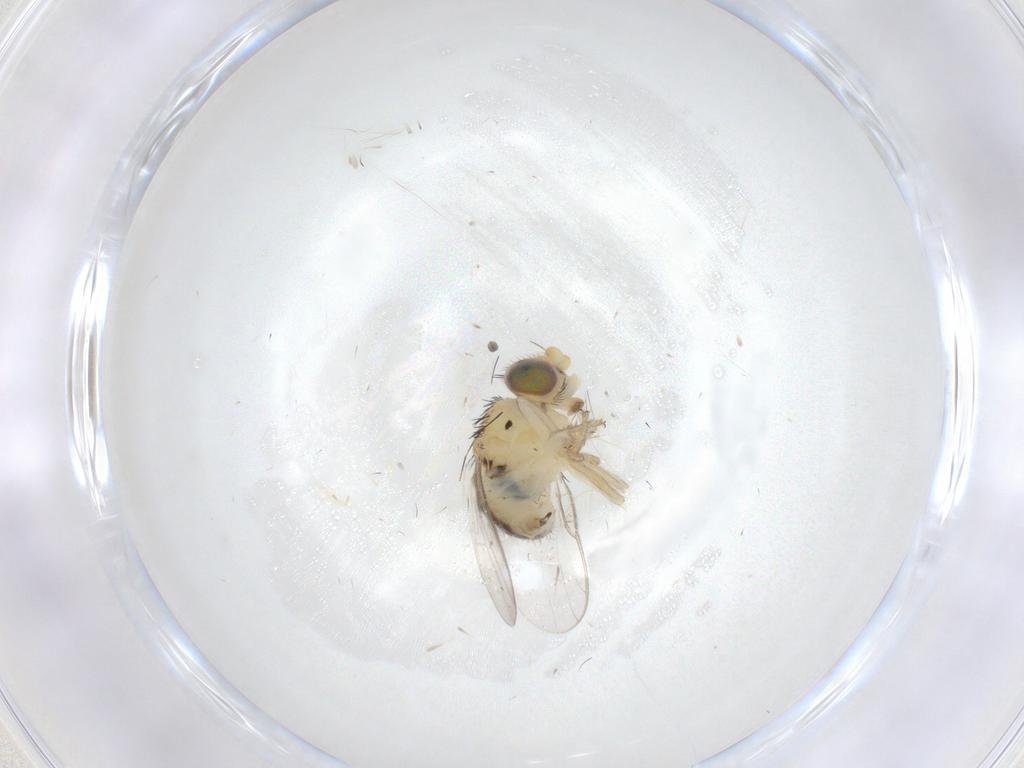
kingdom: Animalia
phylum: Arthropoda
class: Insecta
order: Diptera
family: Chloropidae
